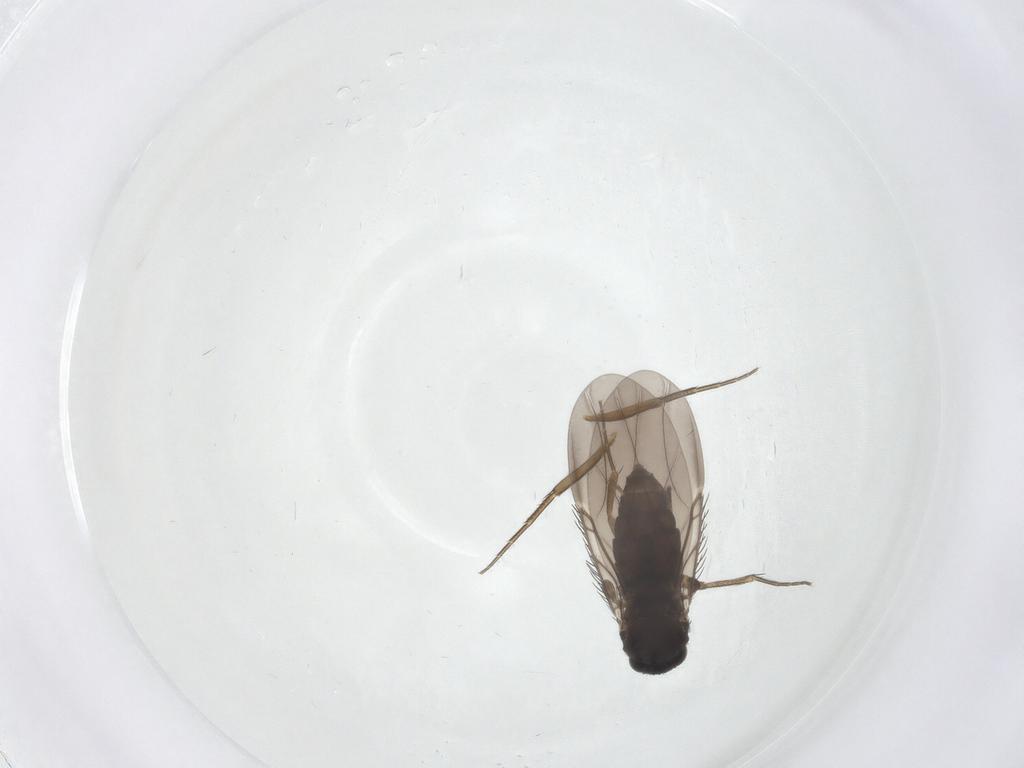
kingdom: Animalia
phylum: Arthropoda
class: Insecta
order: Diptera
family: Phoridae
